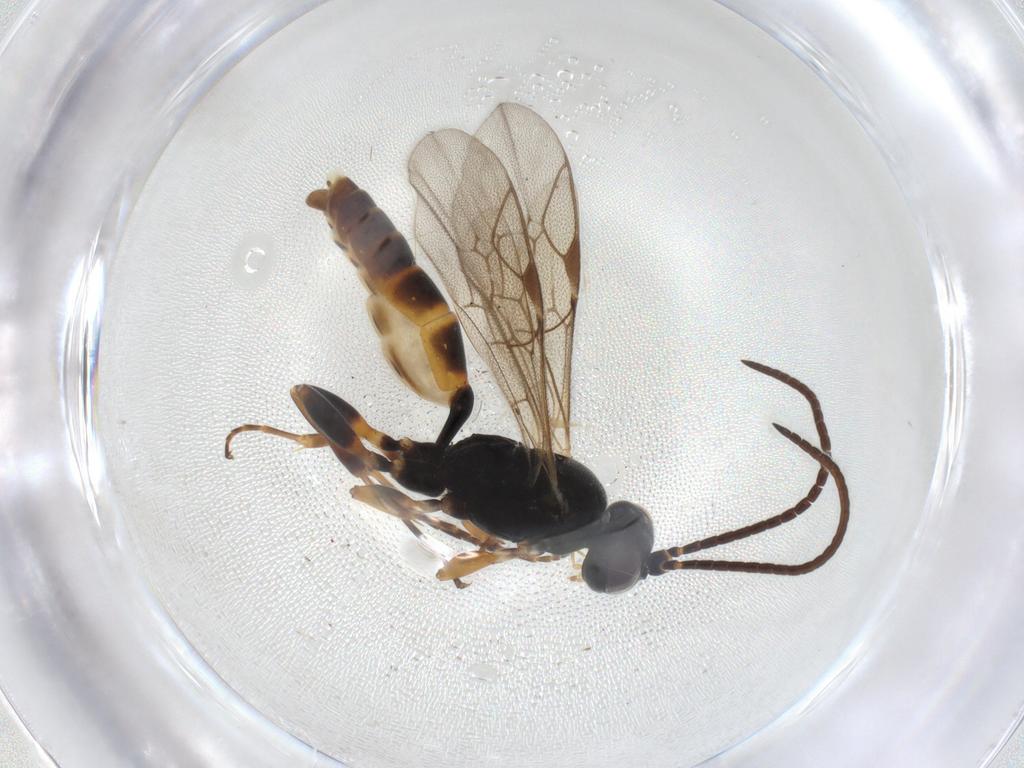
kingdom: Animalia
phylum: Arthropoda
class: Insecta
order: Hymenoptera
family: Ichneumonidae
